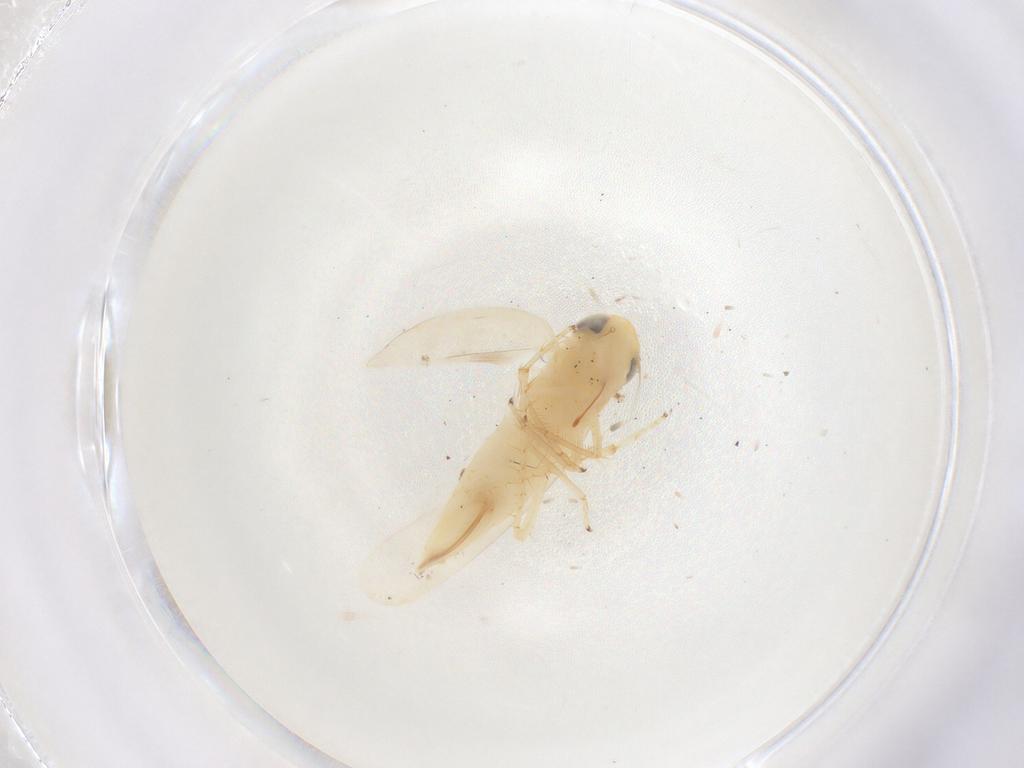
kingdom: Animalia
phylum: Arthropoda
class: Insecta
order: Hemiptera
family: Cicadellidae
